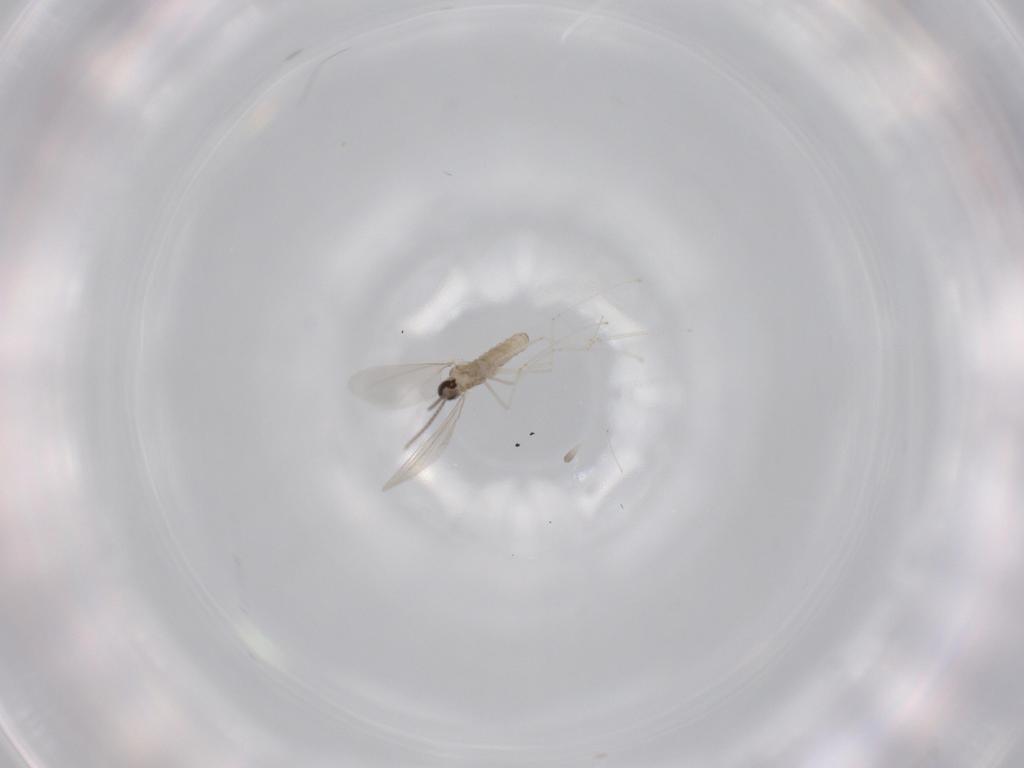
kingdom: Animalia
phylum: Arthropoda
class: Insecta
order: Diptera
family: Cecidomyiidae
